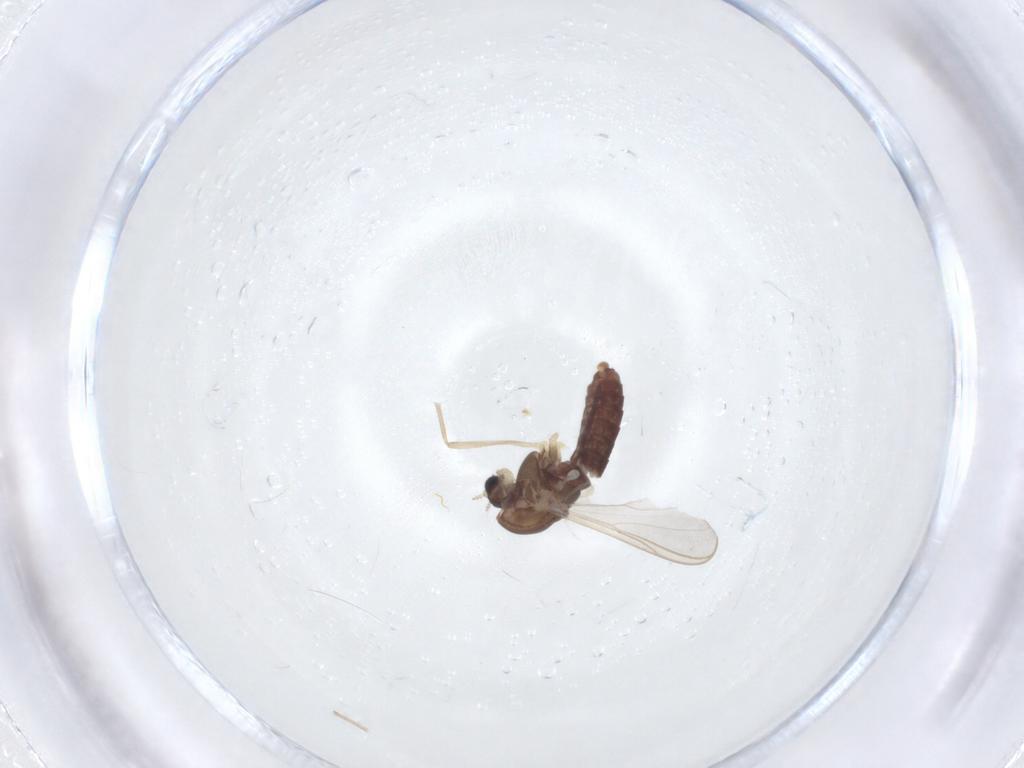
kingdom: Animalia
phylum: Arthropoda
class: Insecta
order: Diptera
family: Chironomidae
